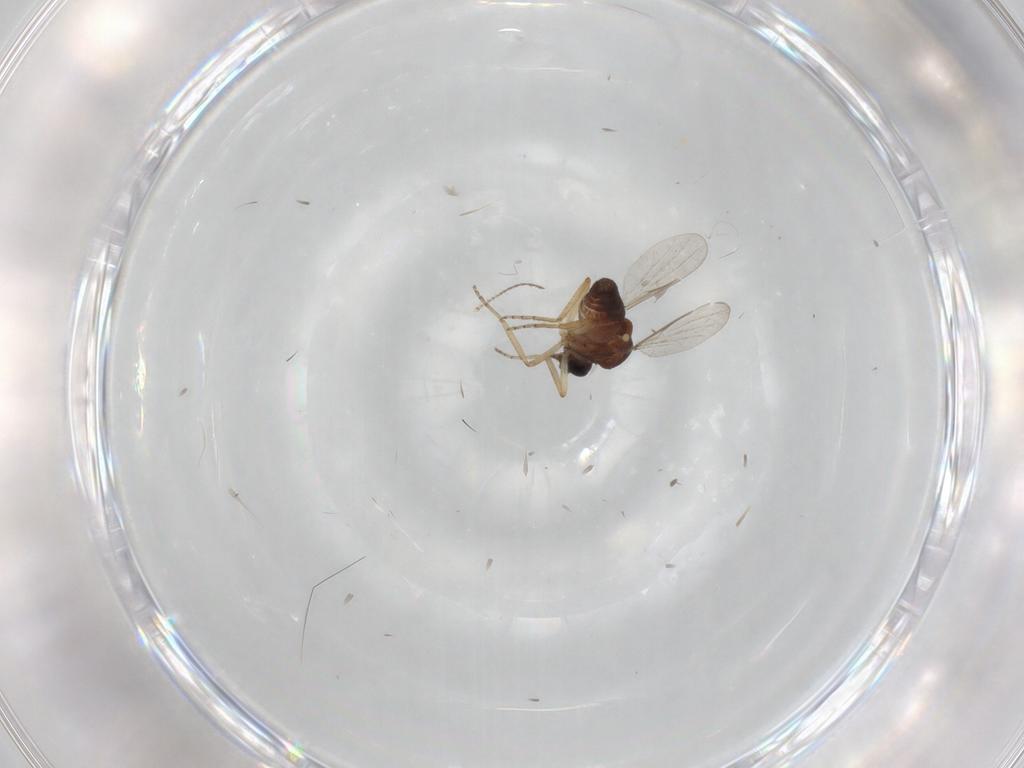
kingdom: Animalia
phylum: Arthropoda
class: Insecta
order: Diptera
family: Ceratopogonidae
